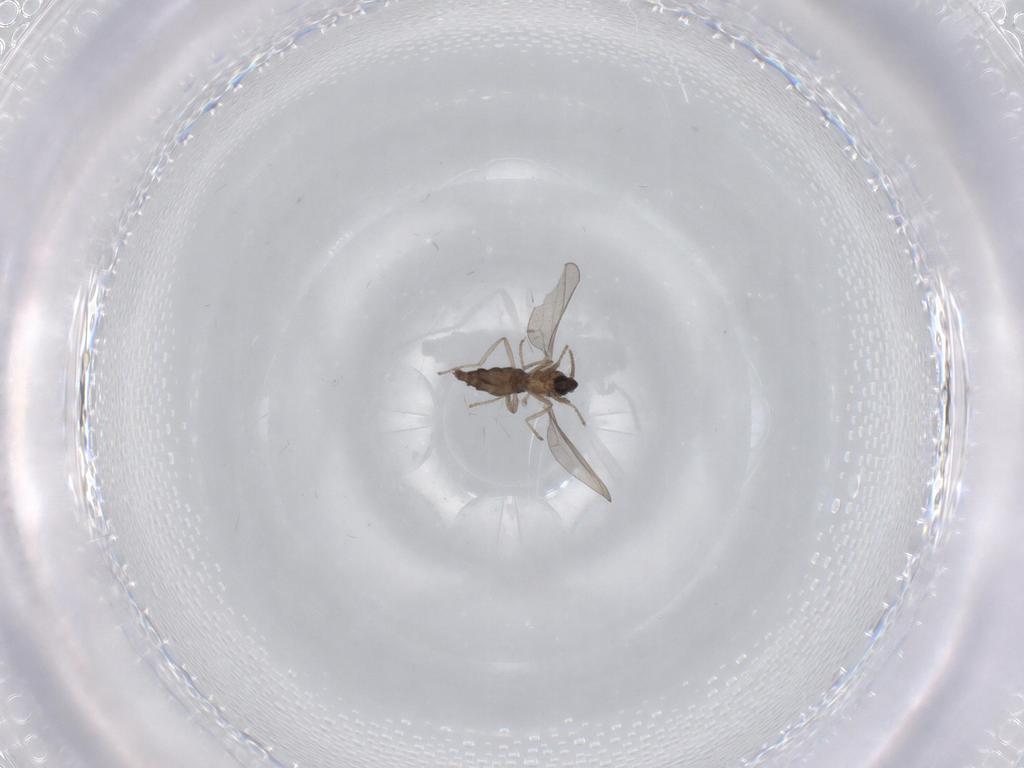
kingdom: Animalia
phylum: Arthropoda
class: Insecta
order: Diptera
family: Cecidomyiidae
